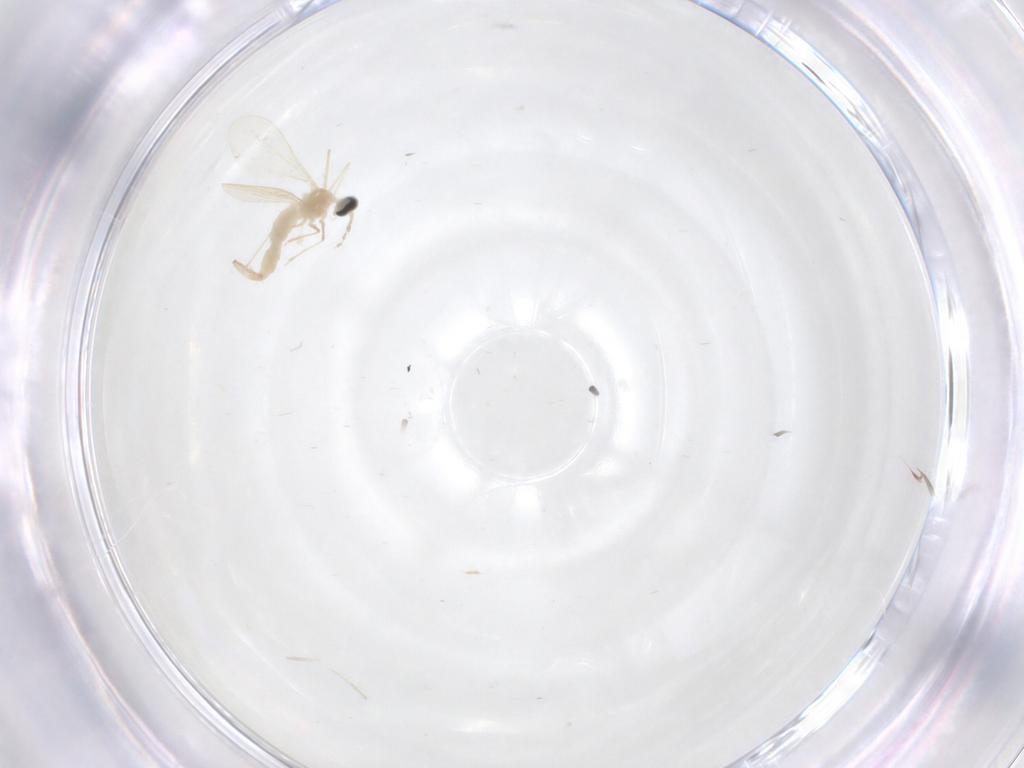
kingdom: Animalia
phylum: Arthropoda
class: Insecta
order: Diptera
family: Cecidomyiidae
